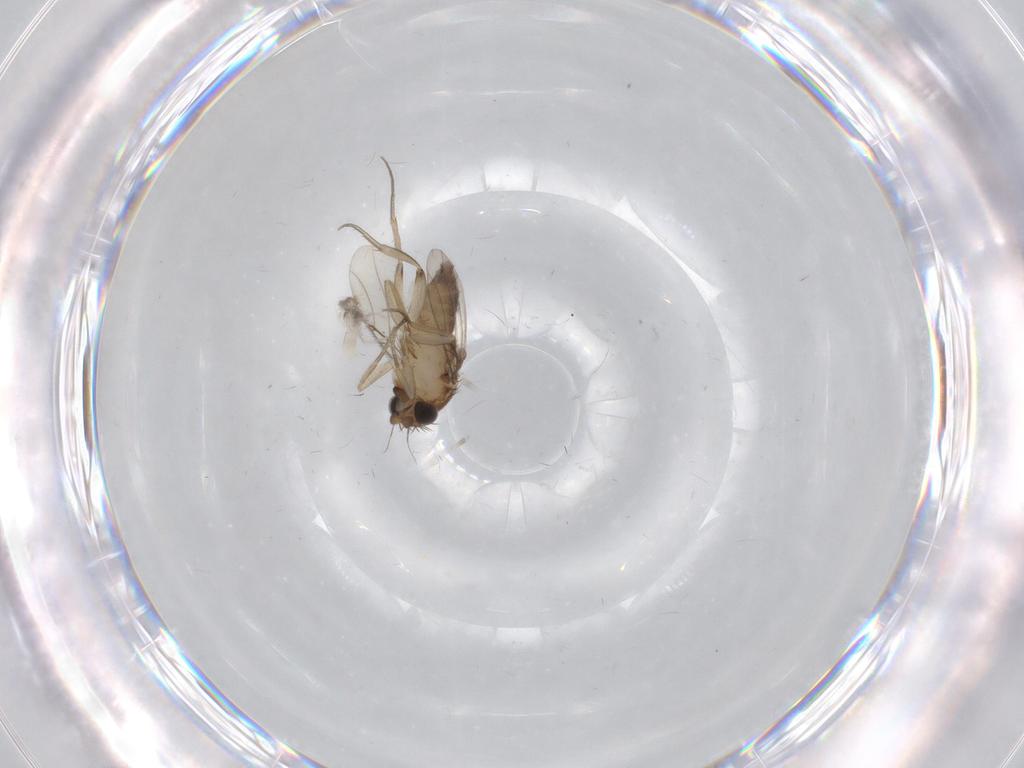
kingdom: Animalia
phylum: Arthropoda
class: Insecta
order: Diptera
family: Phoridae
